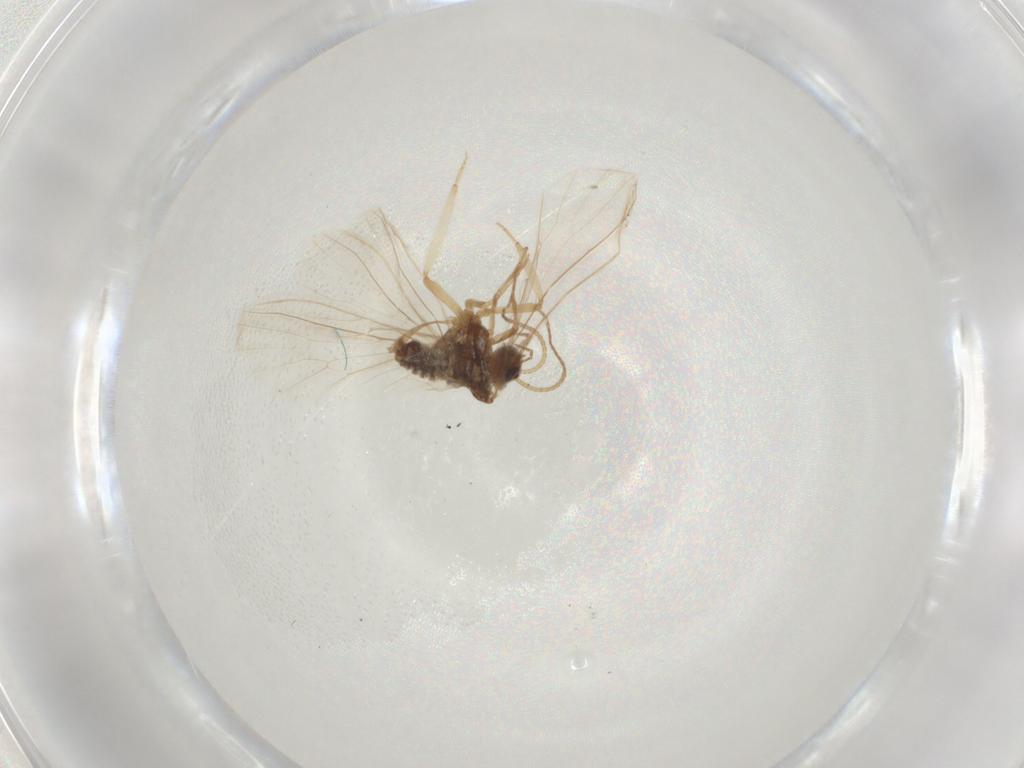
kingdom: Animalia
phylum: Arthropoda
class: Insecta
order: Neuroptera
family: Coniopterygidae
